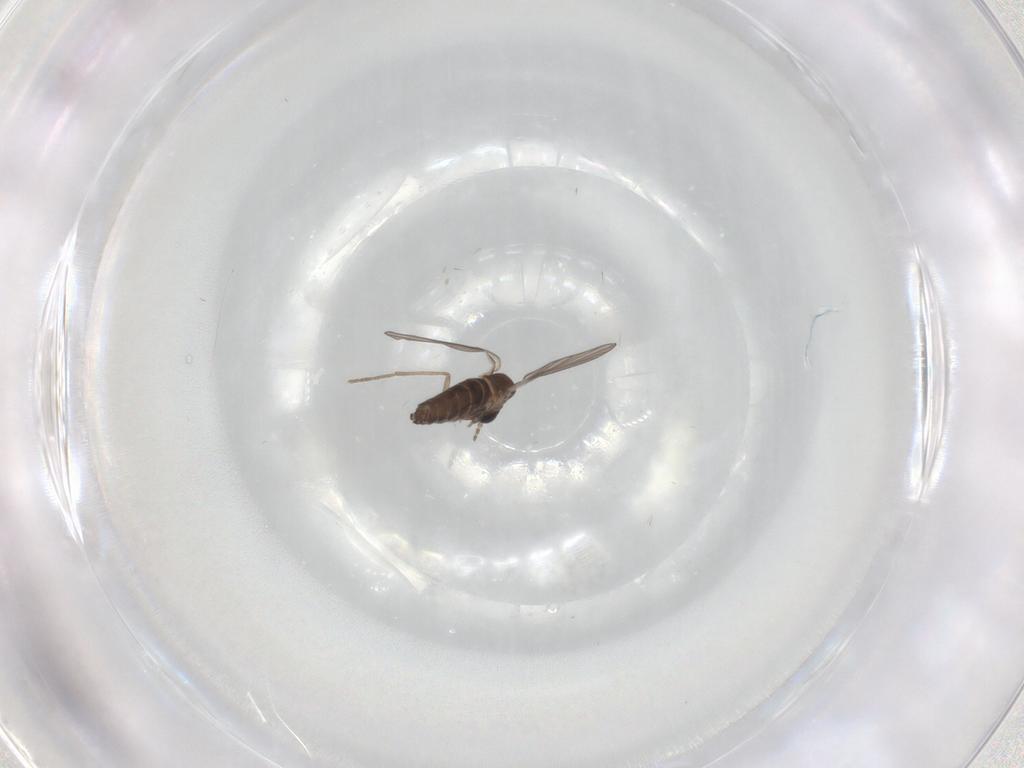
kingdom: Animalia
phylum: Arthropoda
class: Insecta
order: Diptera
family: Cecidomyiidae
